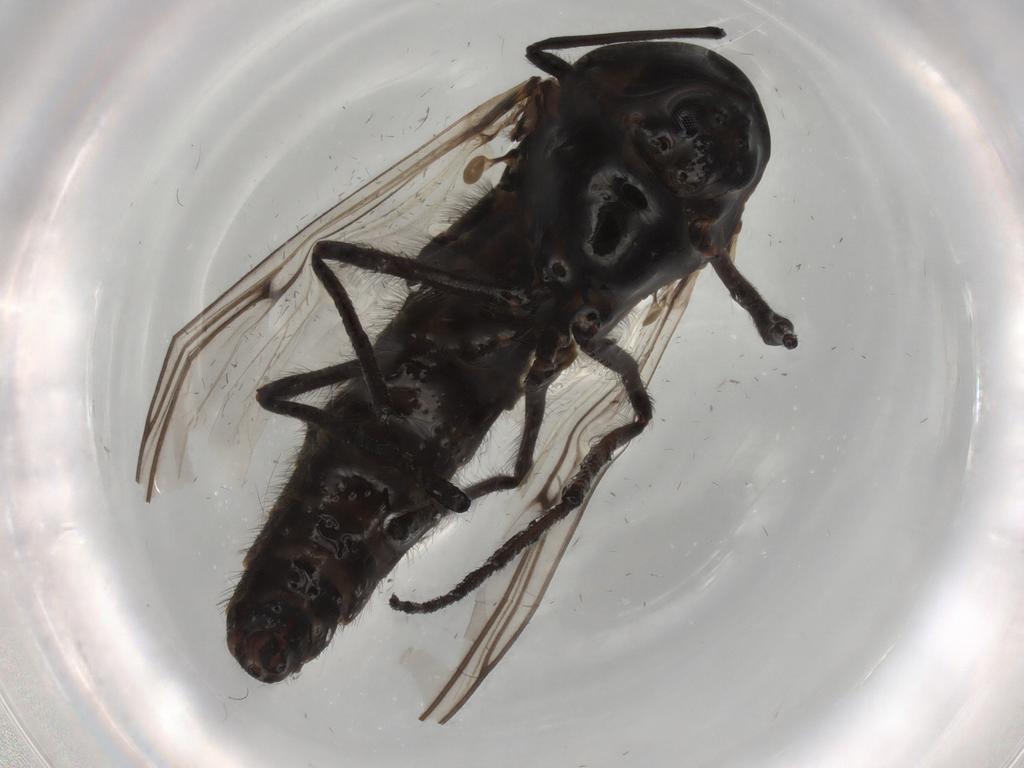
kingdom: Animalia
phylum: Arthropoda
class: Insecta
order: Diptera
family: Chironomidae
